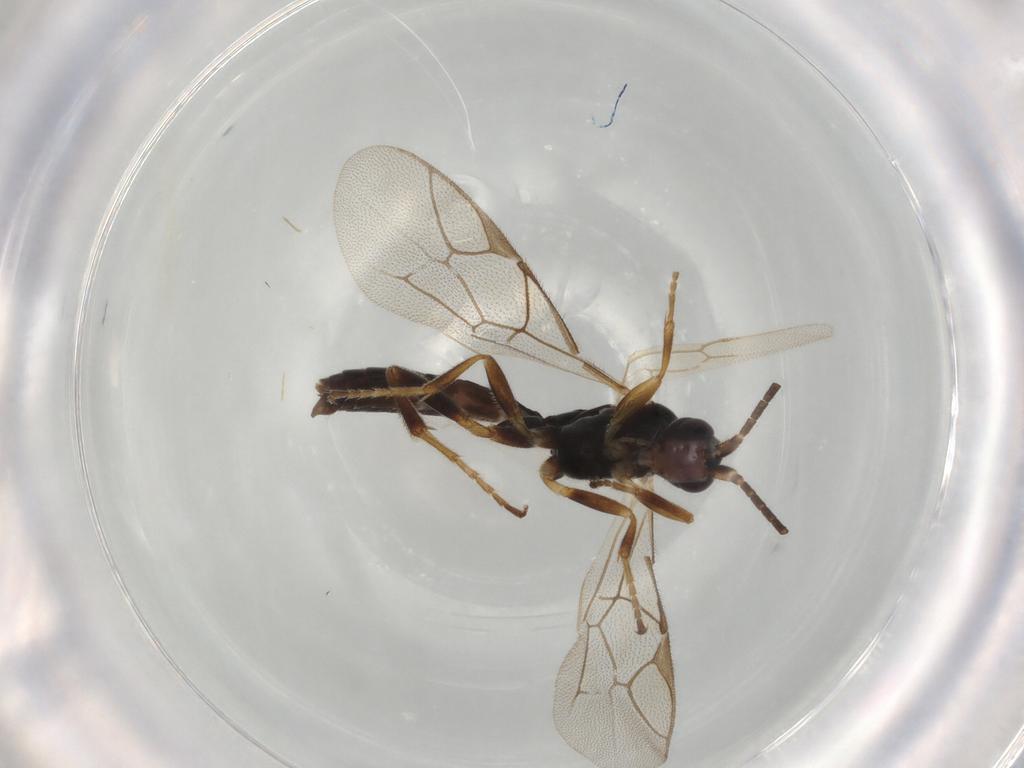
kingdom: Animalia
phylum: Arthropoda
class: Insecta
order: Hymenoptera
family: Ichneumonidae
